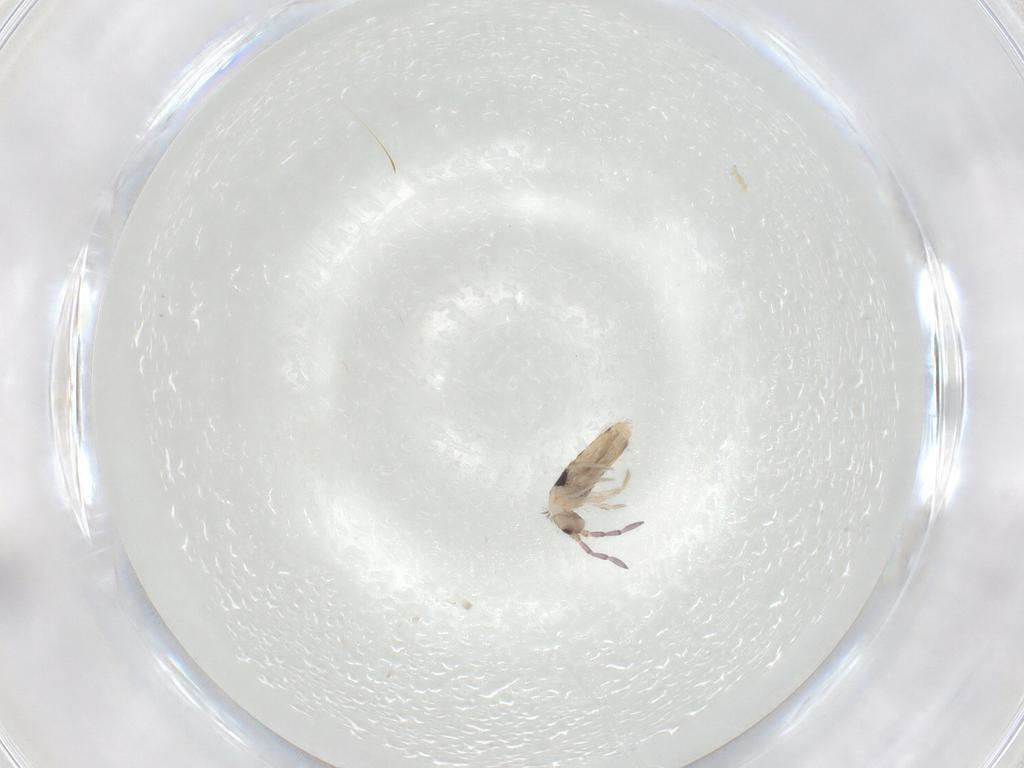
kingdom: Animalia
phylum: Arthropoda
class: Collembola
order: Entomobryomorpha
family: Entomobryidae
